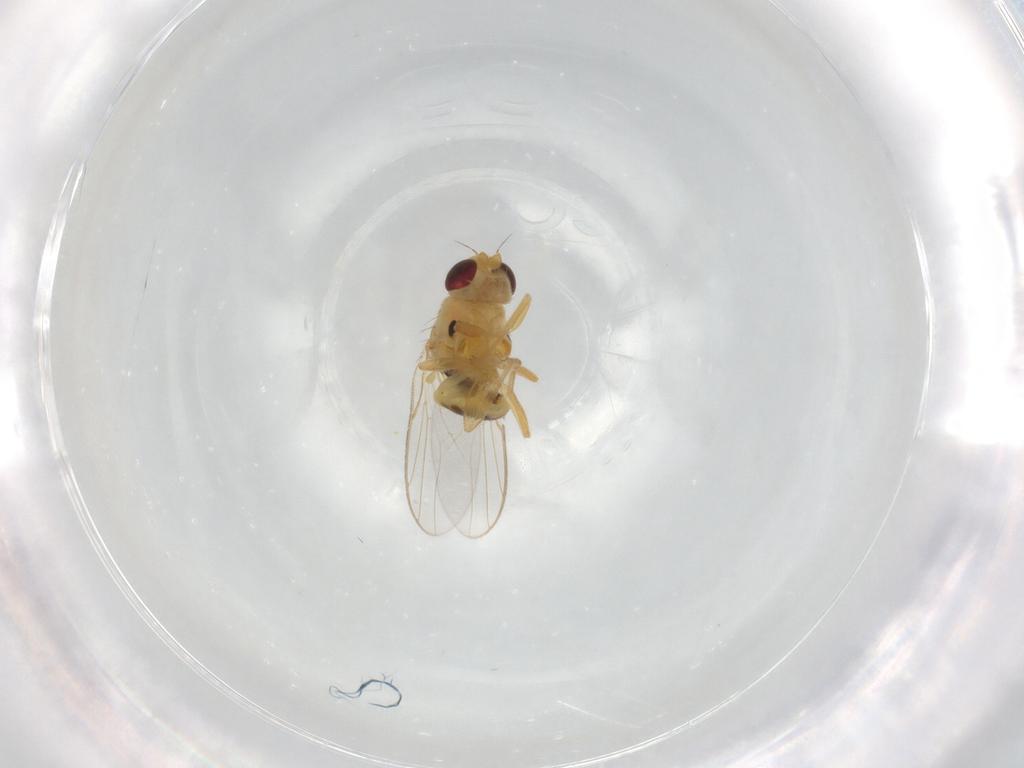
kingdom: Animalia
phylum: Arthropoda
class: Insecta
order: Diptera
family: Chloropidae
